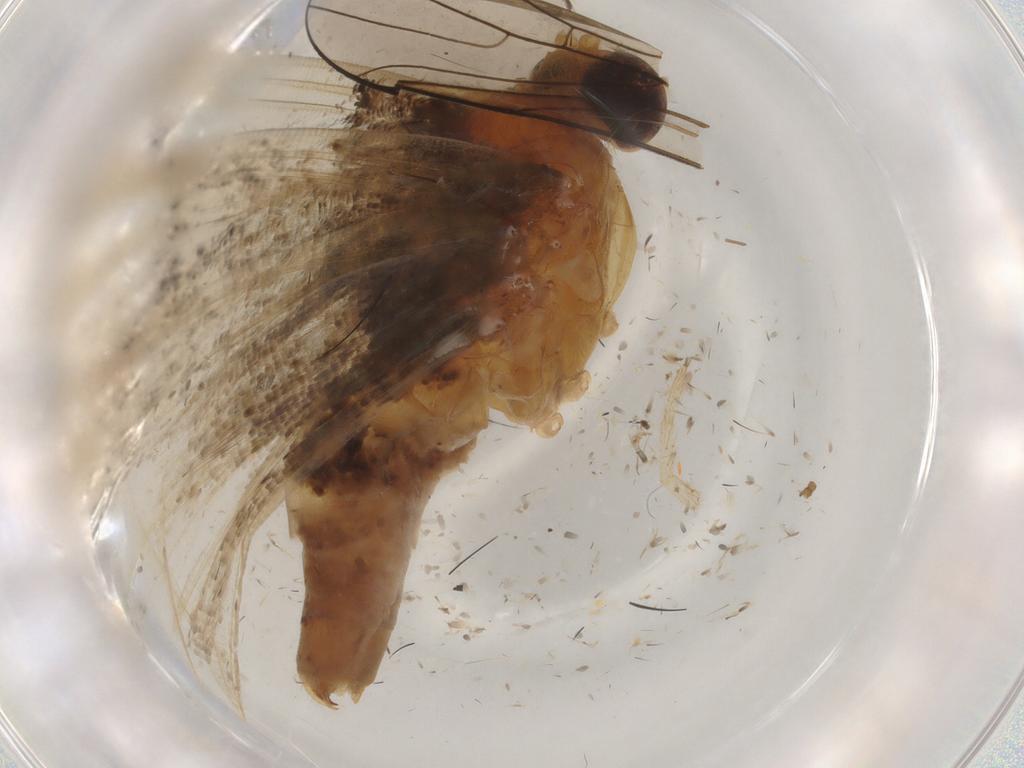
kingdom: Animalia
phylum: Arthropoda
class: Insecta
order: Lepidoptera
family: Geometridae
